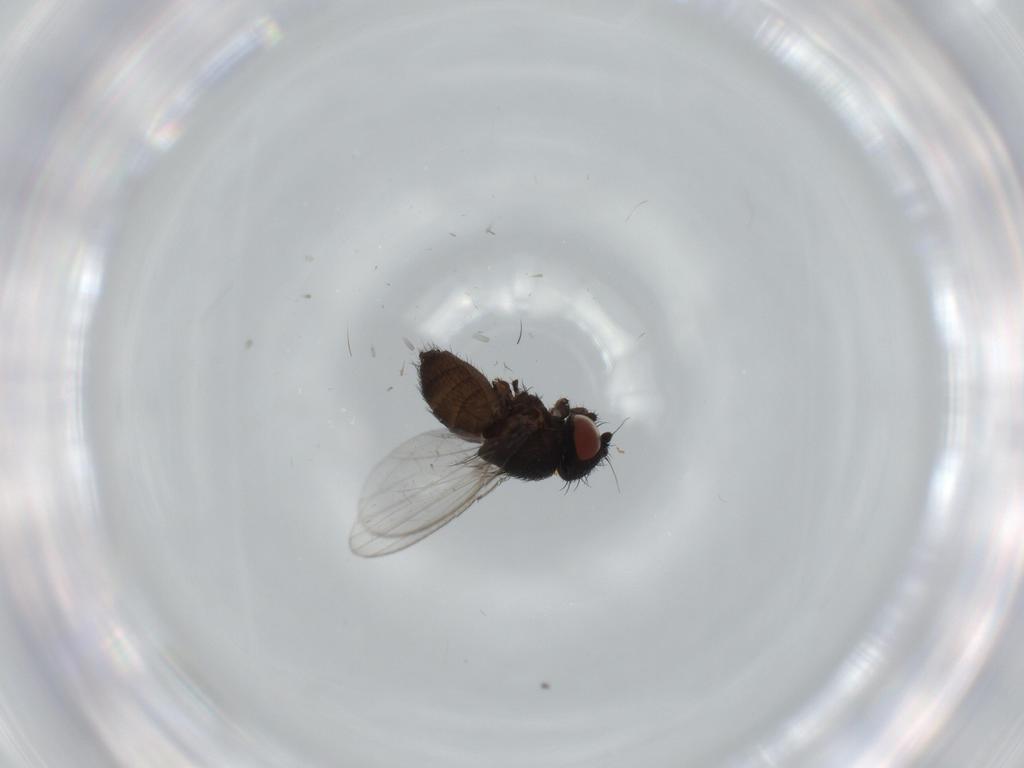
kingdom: Animalia
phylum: Arthropoda
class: Insecta
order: Diptera
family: Milichiidae
